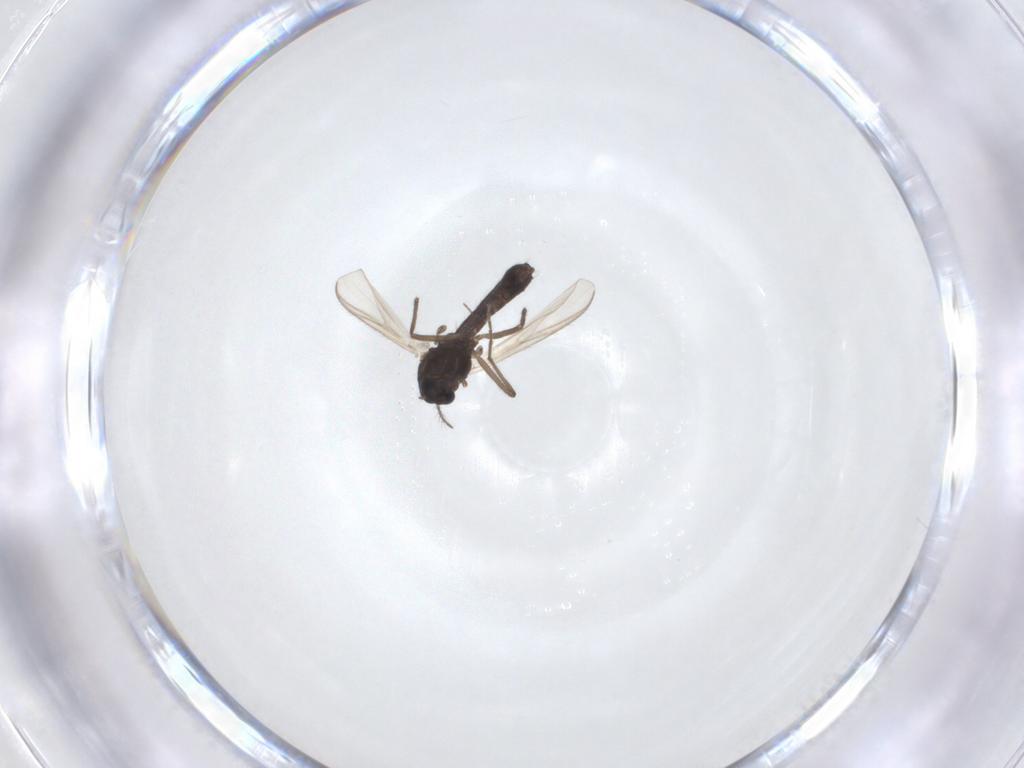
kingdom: Animalia
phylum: Arthropoda
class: Insecta
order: Diptera
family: Chironomidae
